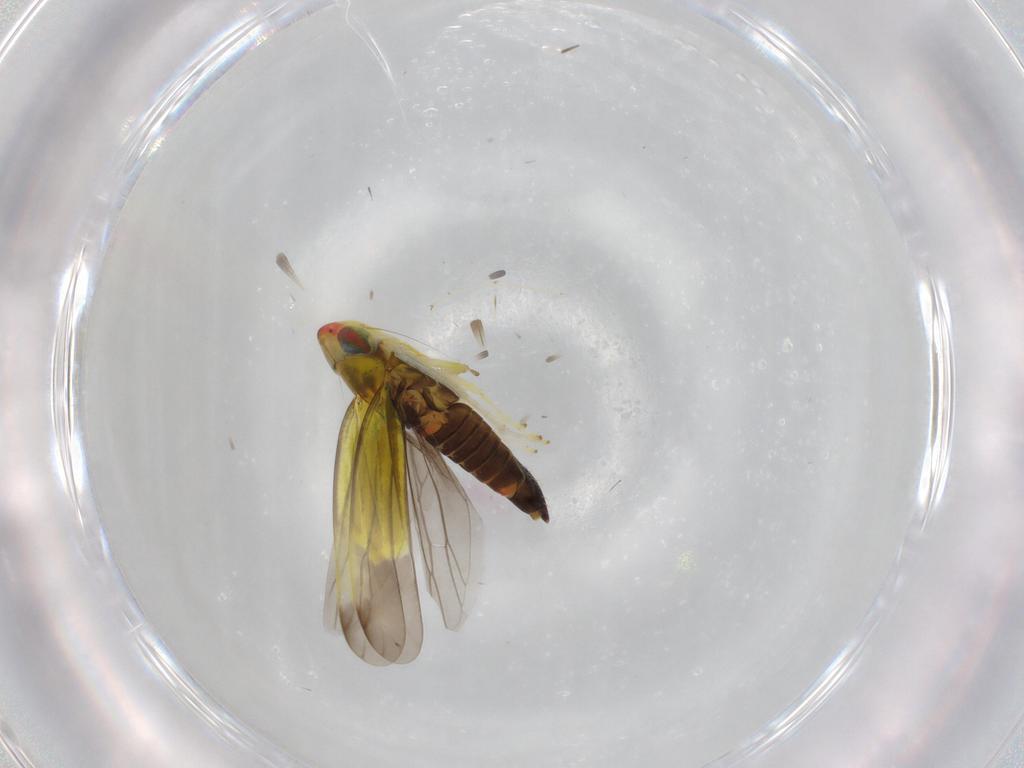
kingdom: Animalia
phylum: Arthropoda
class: Insecta
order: Hemiptera
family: Cicadellidae
